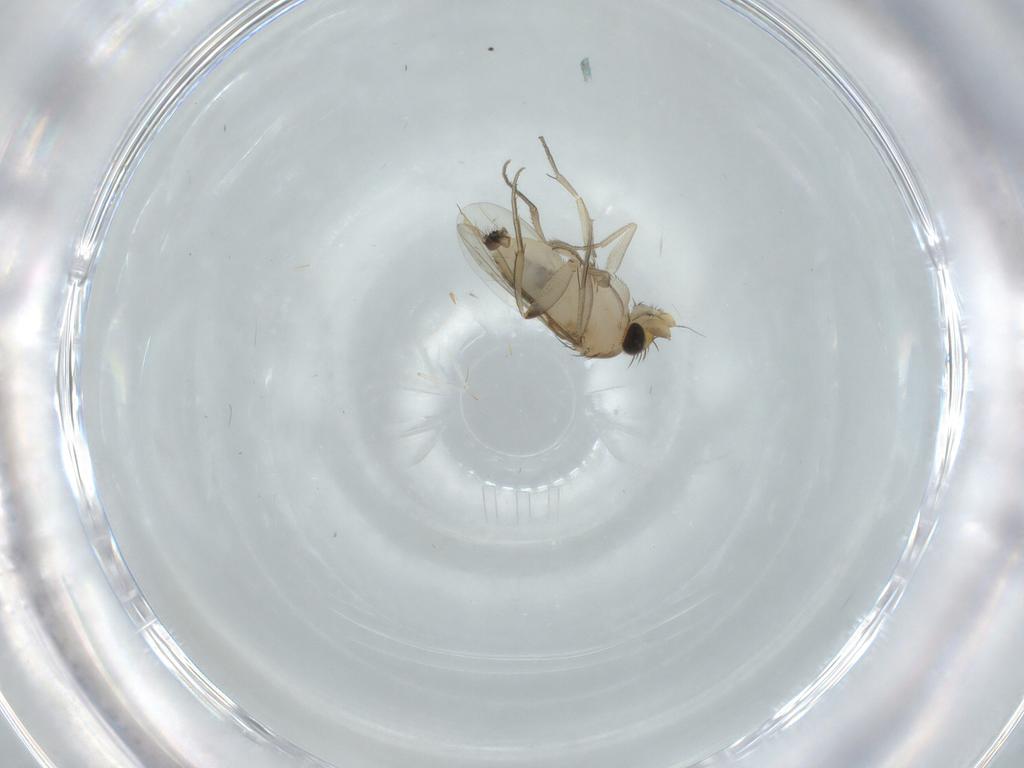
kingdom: Animalia
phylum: Arthropoda
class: Insecta
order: Diptera
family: Phoridae
